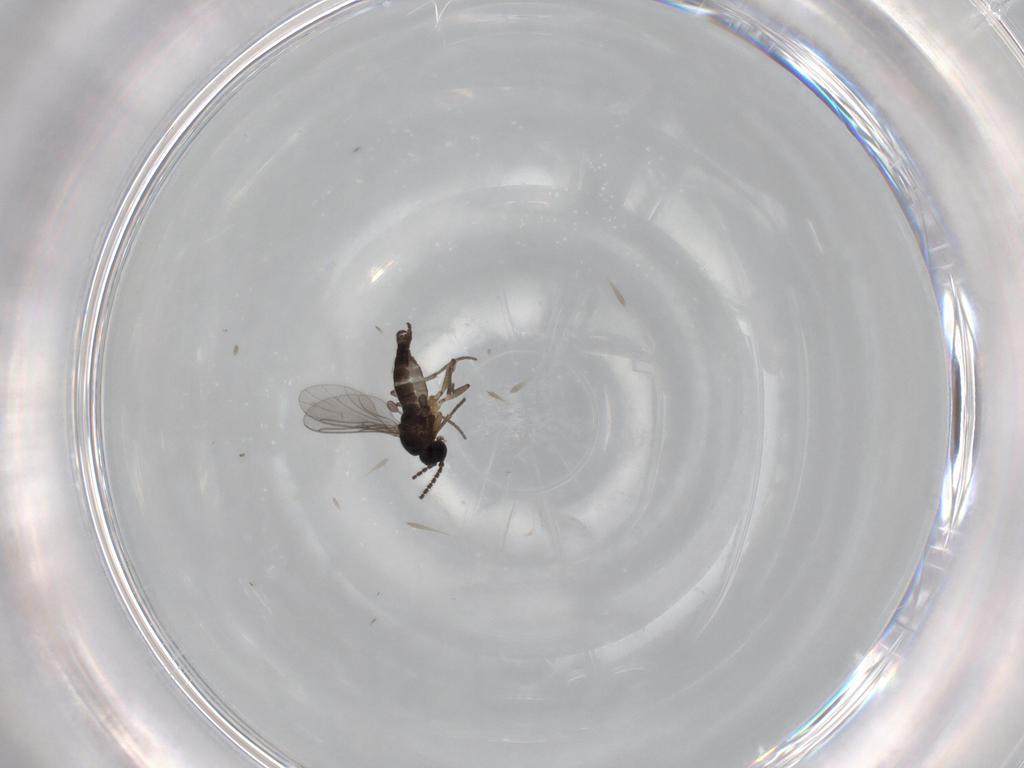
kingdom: Animalia
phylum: Arthropoda
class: Insecta
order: Diptera
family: Sciaridae
